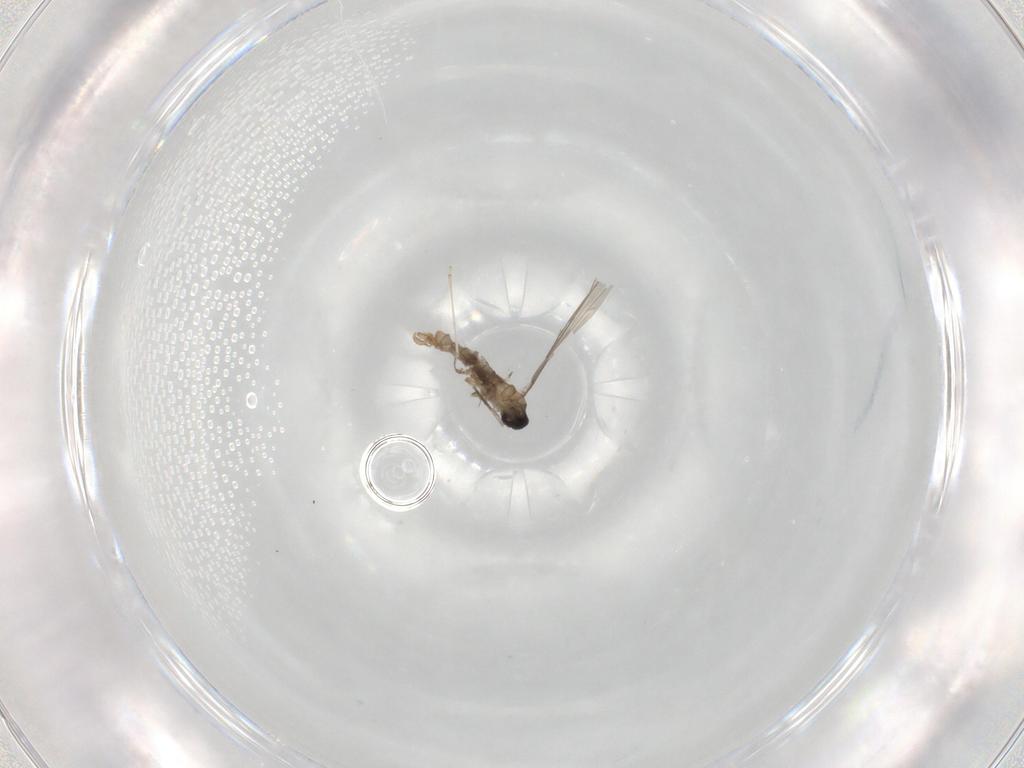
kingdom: Animalia
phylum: Arthropoda
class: Insecta
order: Diptera
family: Cecidomyiidae
